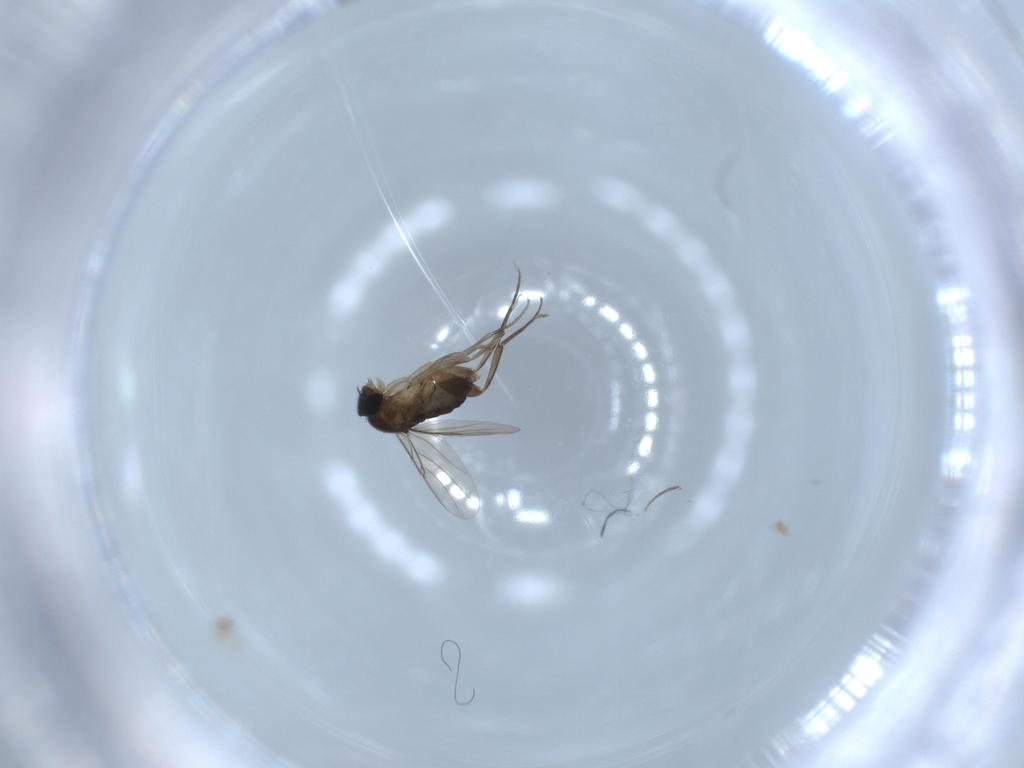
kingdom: Animalia
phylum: Arthropoda
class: Insecta
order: Diptera
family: Phoridae
